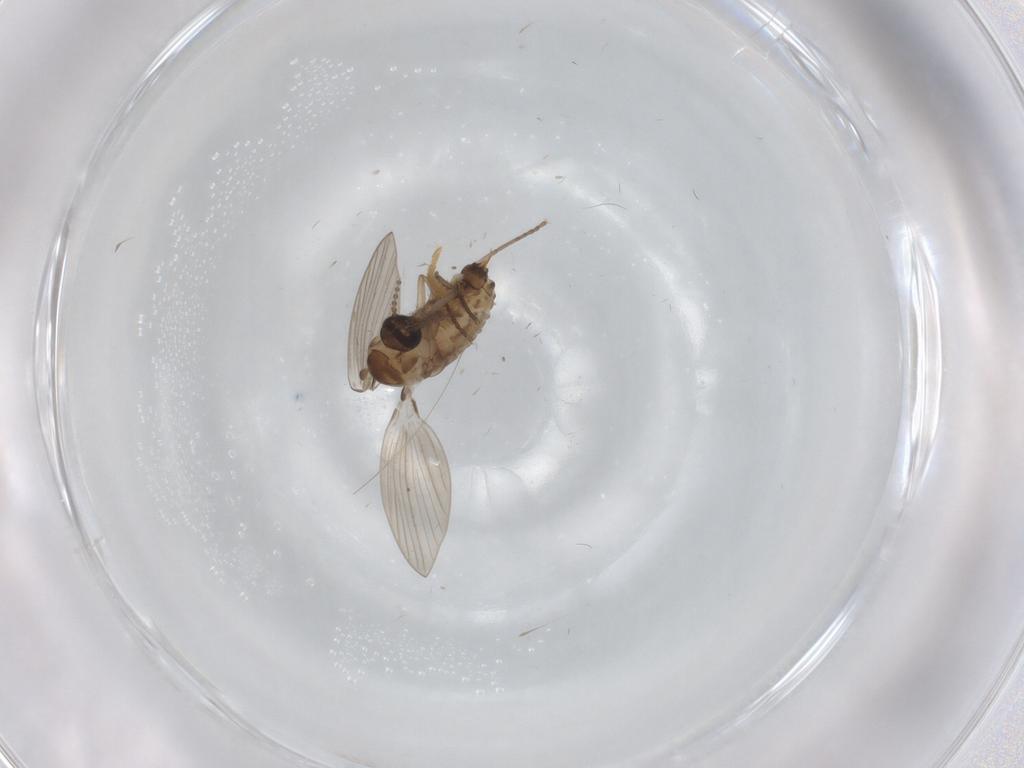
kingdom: Animalia
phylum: Arthropoda
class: Insecta
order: Diptera
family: Psychodidae
